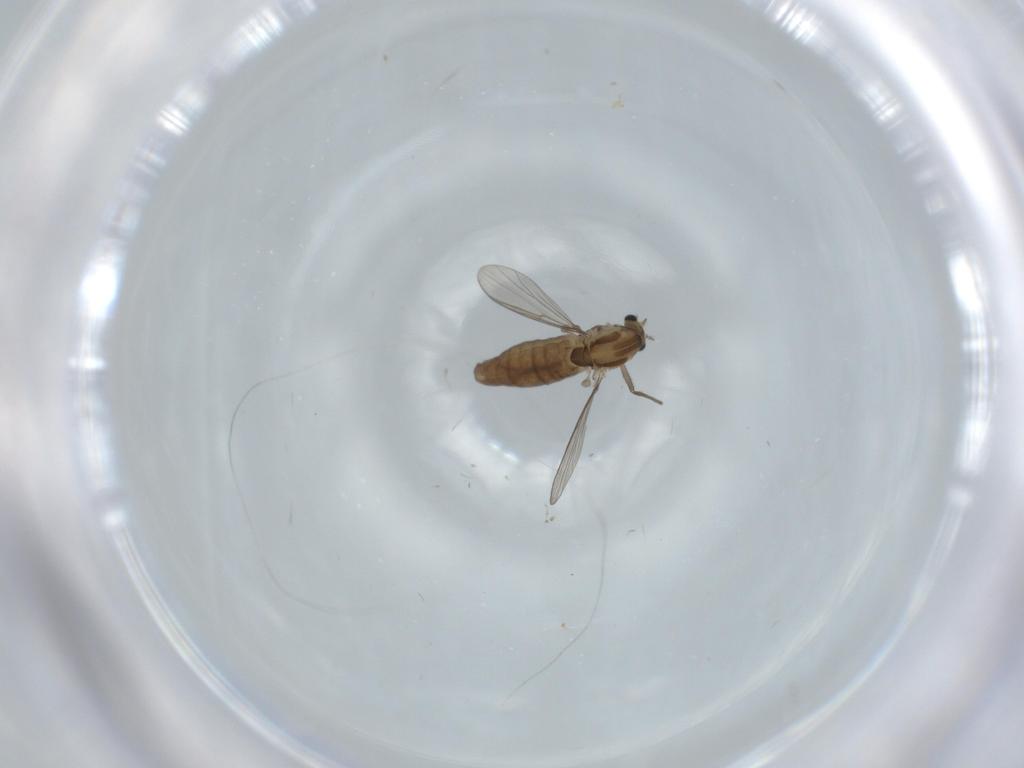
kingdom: Animalia
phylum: Arthropoda
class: Insecta
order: Diptera
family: Chironomidae
